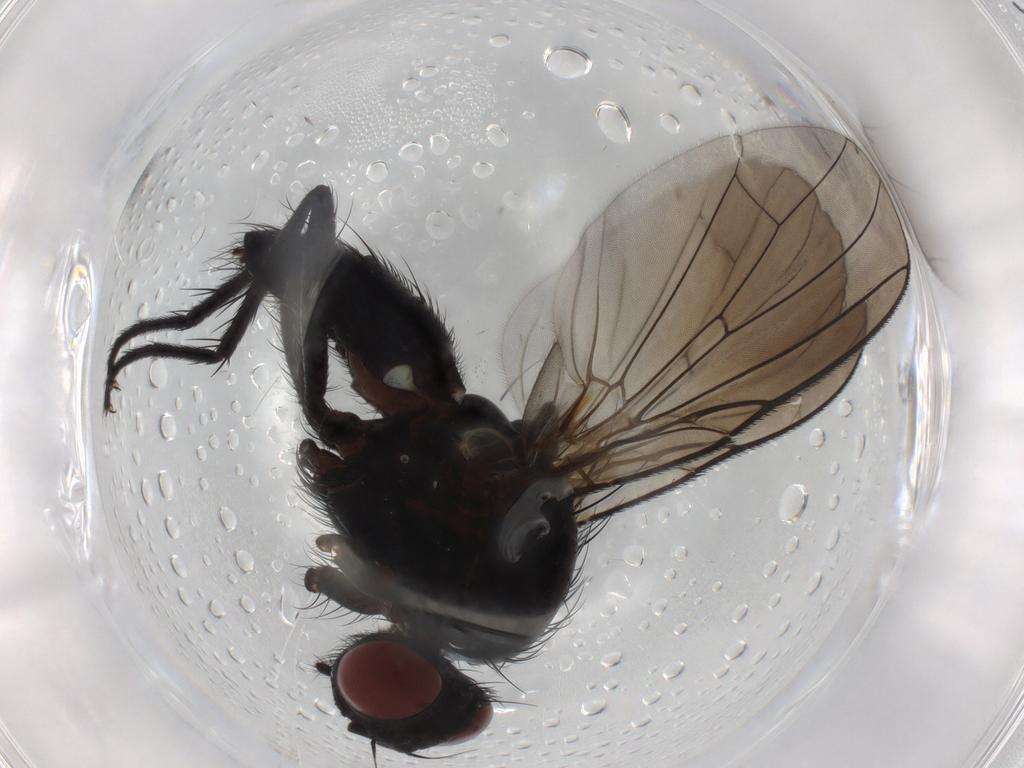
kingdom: Animalia
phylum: Arthropoda
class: Insecta
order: Diptera
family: Anthomyiidae
